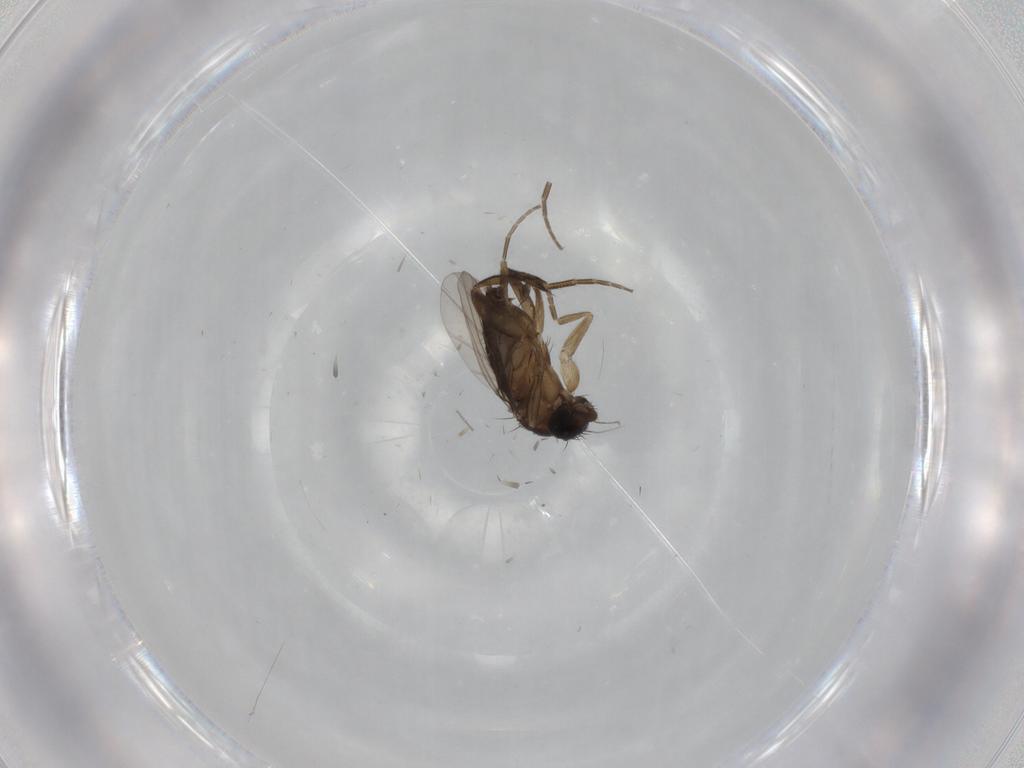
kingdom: Animalia
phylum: Arthropoda
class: Insecta
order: Diptera
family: Phoridae
